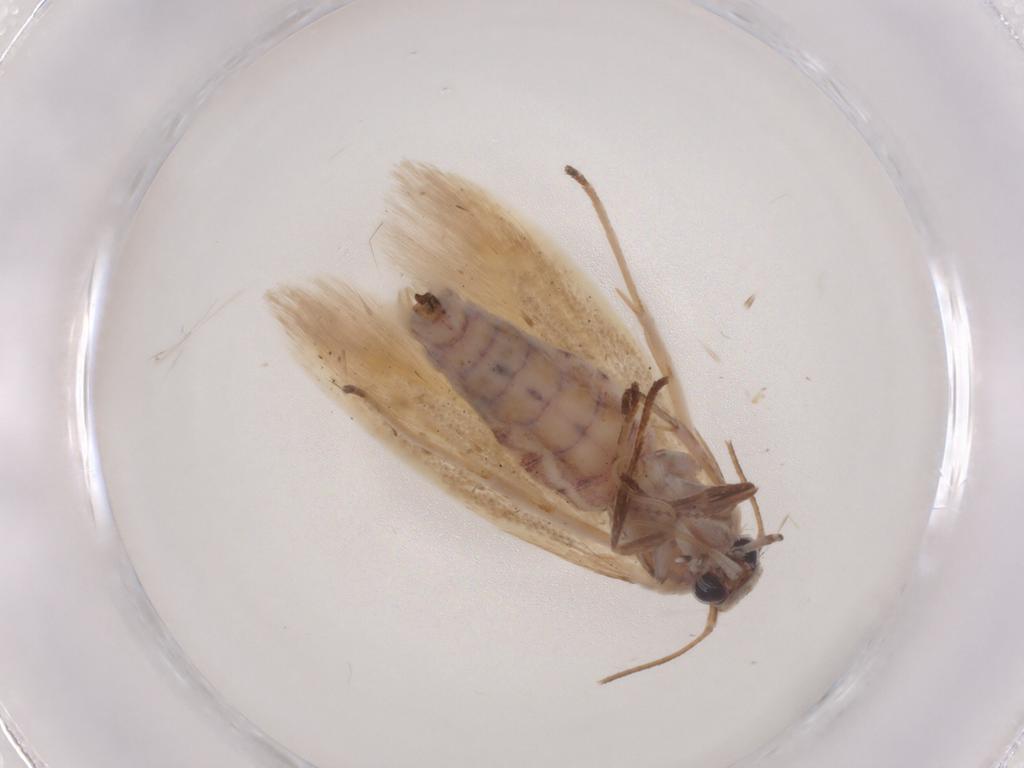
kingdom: Animalia
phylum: Arthropoda
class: Insecta
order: Lepidoptera
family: Scythrididae
